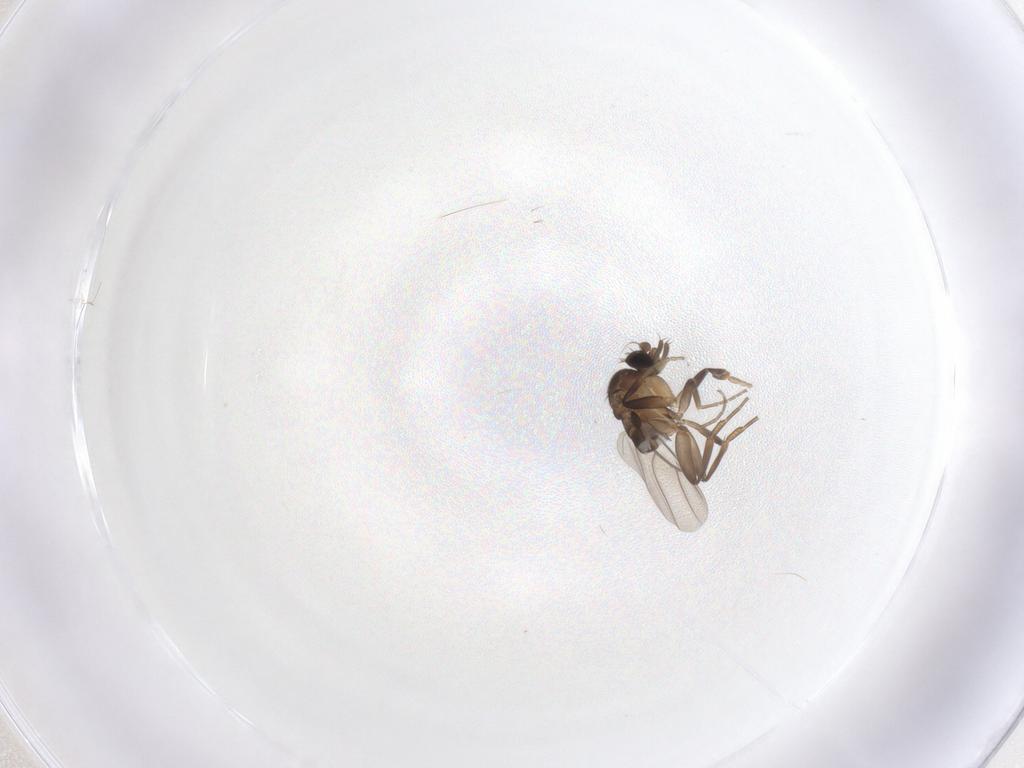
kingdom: Animalia
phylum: Arthropoda
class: Insecta
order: Diptera
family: Phoridae
